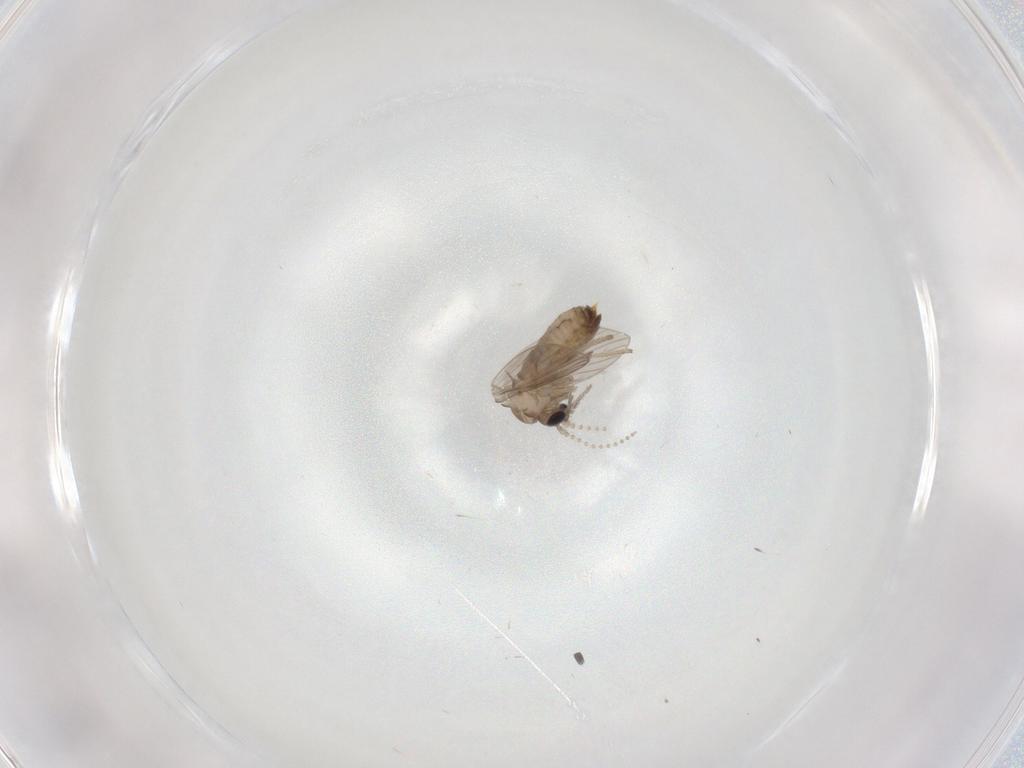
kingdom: Animalia
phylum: Arthropoda
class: Insecta
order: Diptera
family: Psychodidae
